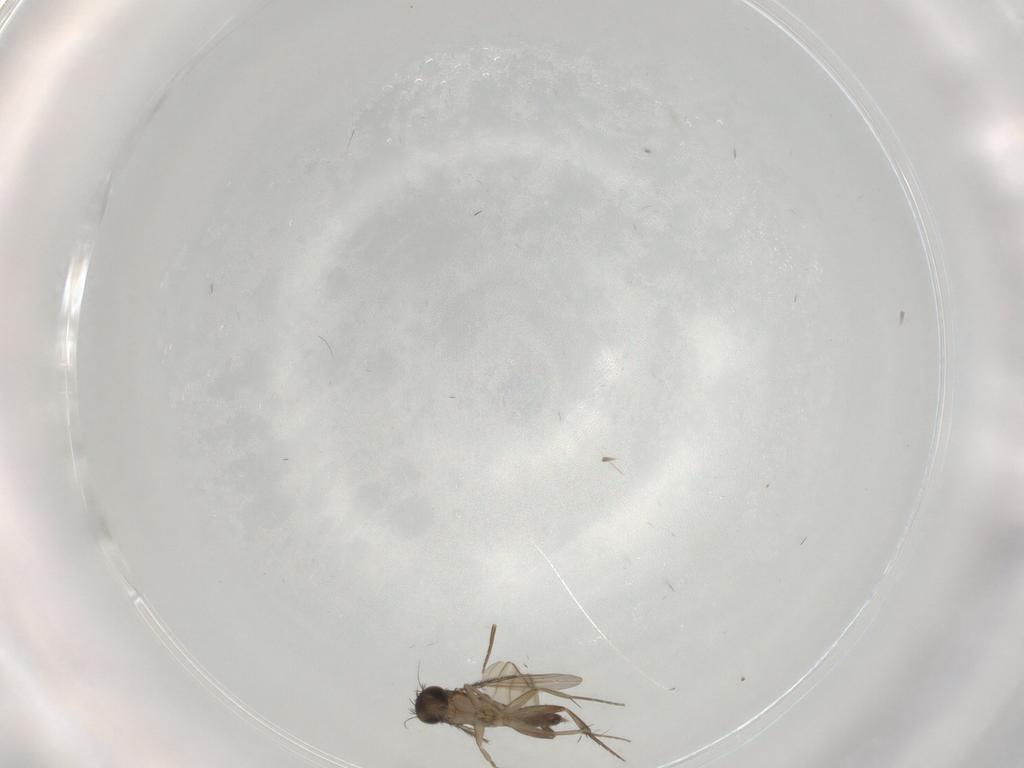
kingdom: Animalia
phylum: Arthropoda
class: Insecta
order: Diptera
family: Phoridae
